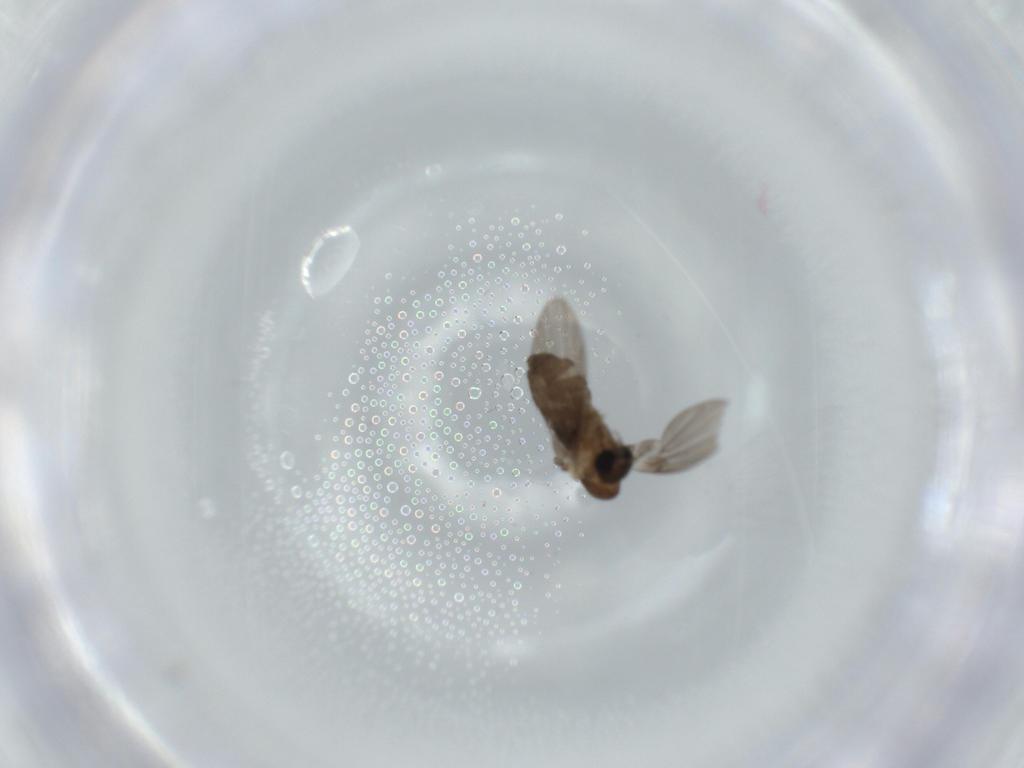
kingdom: Animalia
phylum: Arthropoda
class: Insecta
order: Diptera
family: Psychodidae
